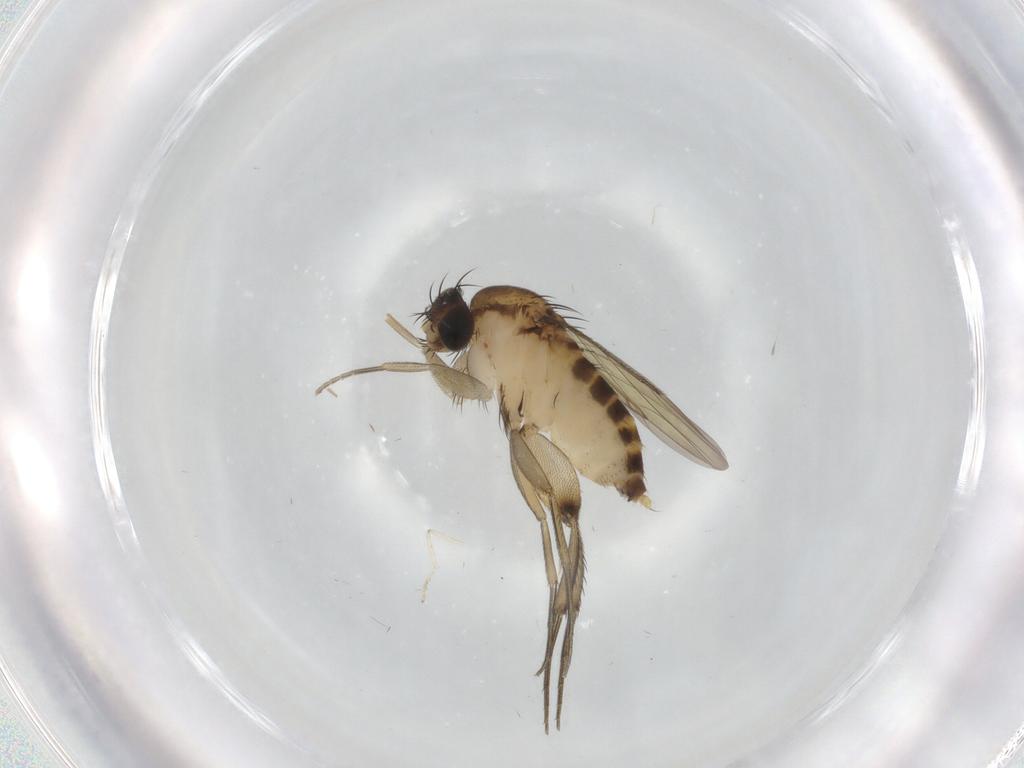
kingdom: Animalia
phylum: Arthropoda
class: Insecta
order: Diptera
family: Phoridae
